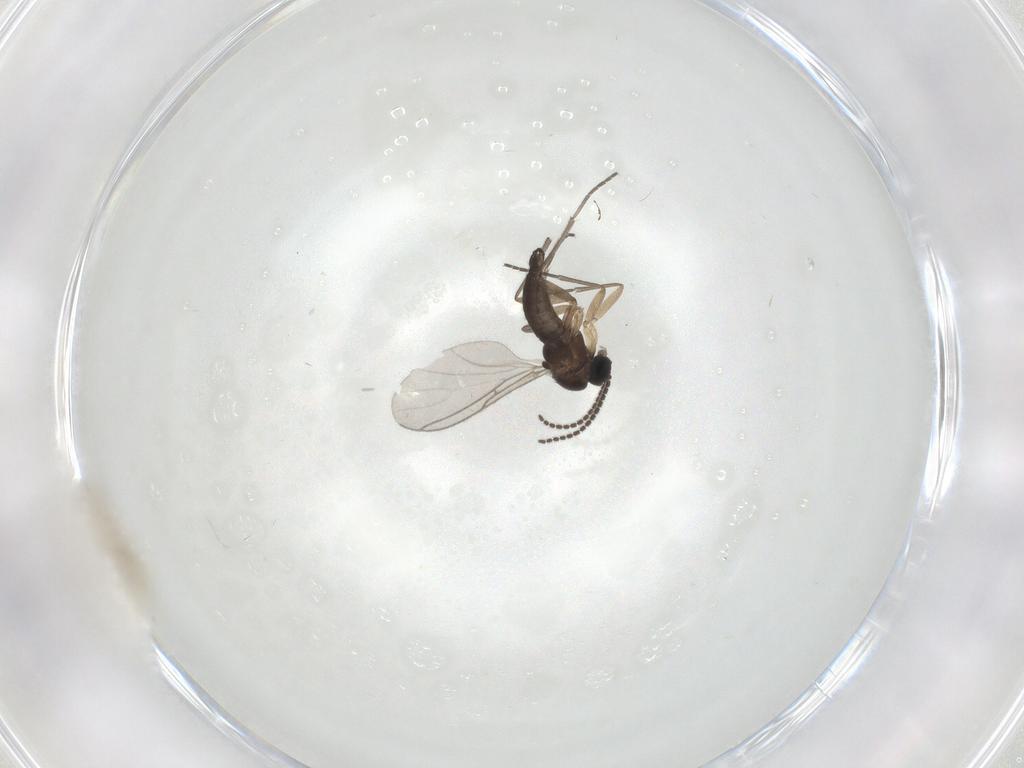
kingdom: Animalia
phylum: Arthropoda
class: Insecta
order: Diptera
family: Psychodidae
